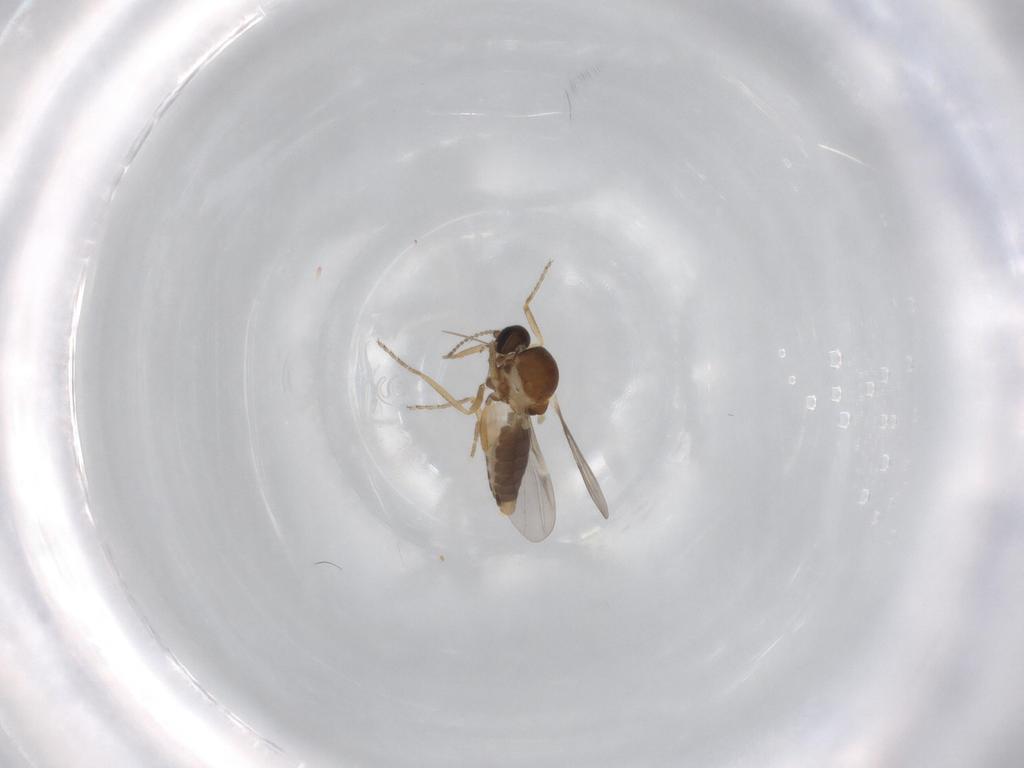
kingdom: Animalia
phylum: Arthropoda
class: Insecta
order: Diptera
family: Ceratopogonidae
